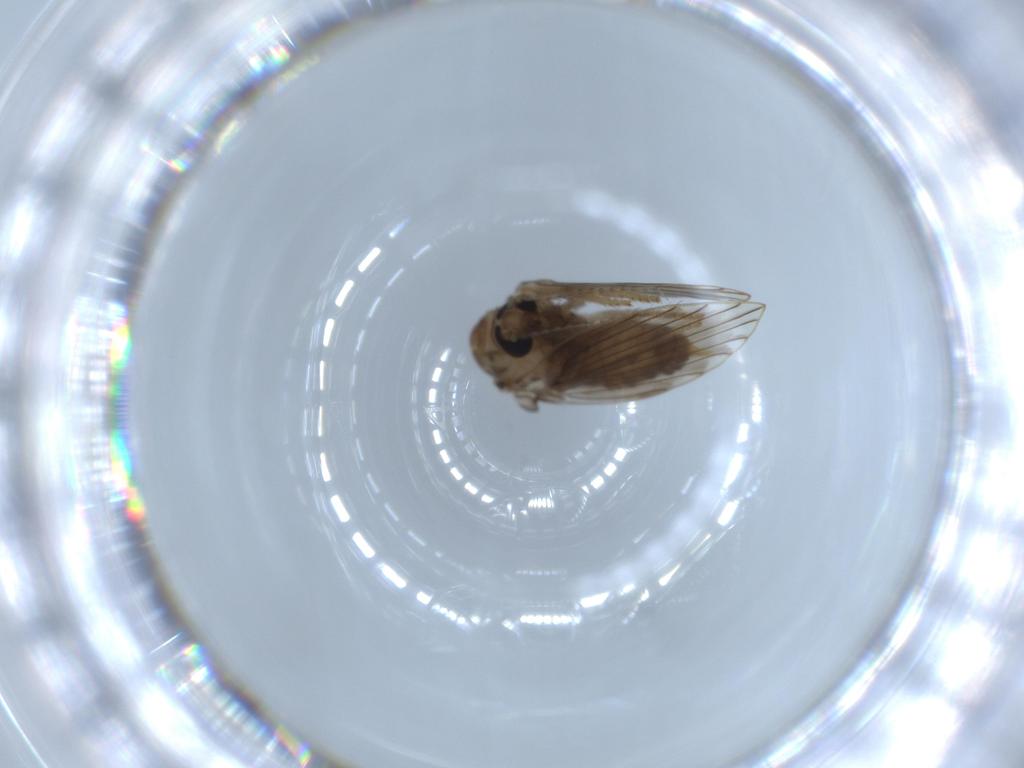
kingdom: Animalia
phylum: Arthropoda
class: Insecta
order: Diptera
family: Psychodidae
